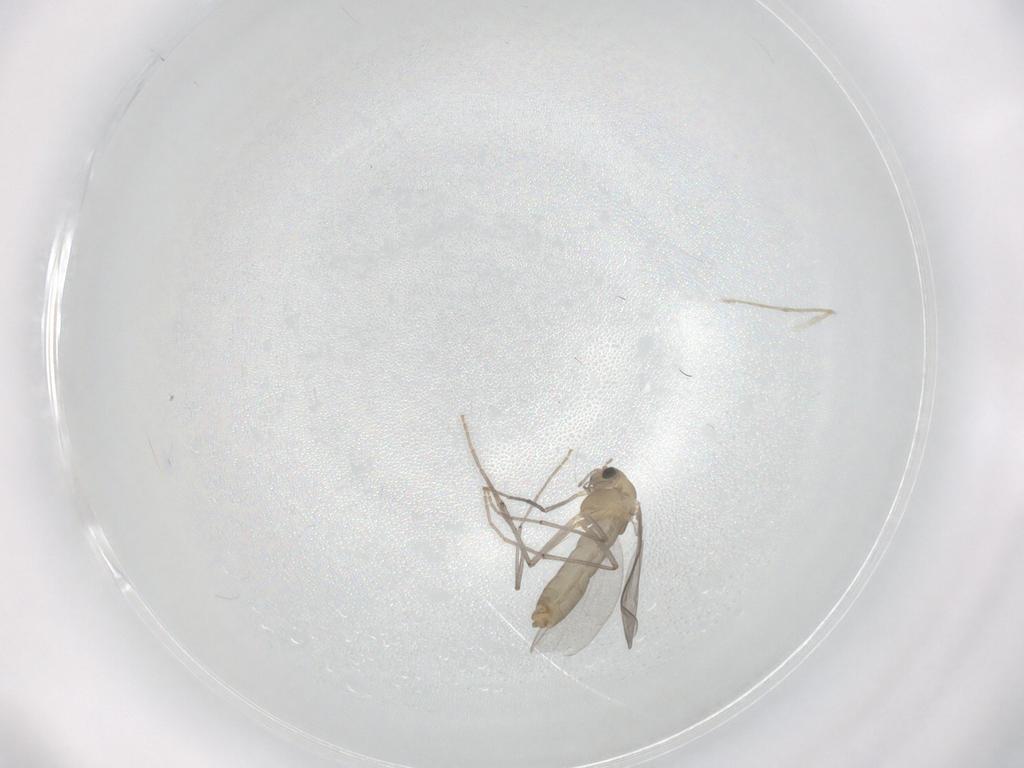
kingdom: Animalia
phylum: Arthropoda
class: Insecta
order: Diptera
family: Chironomidae
